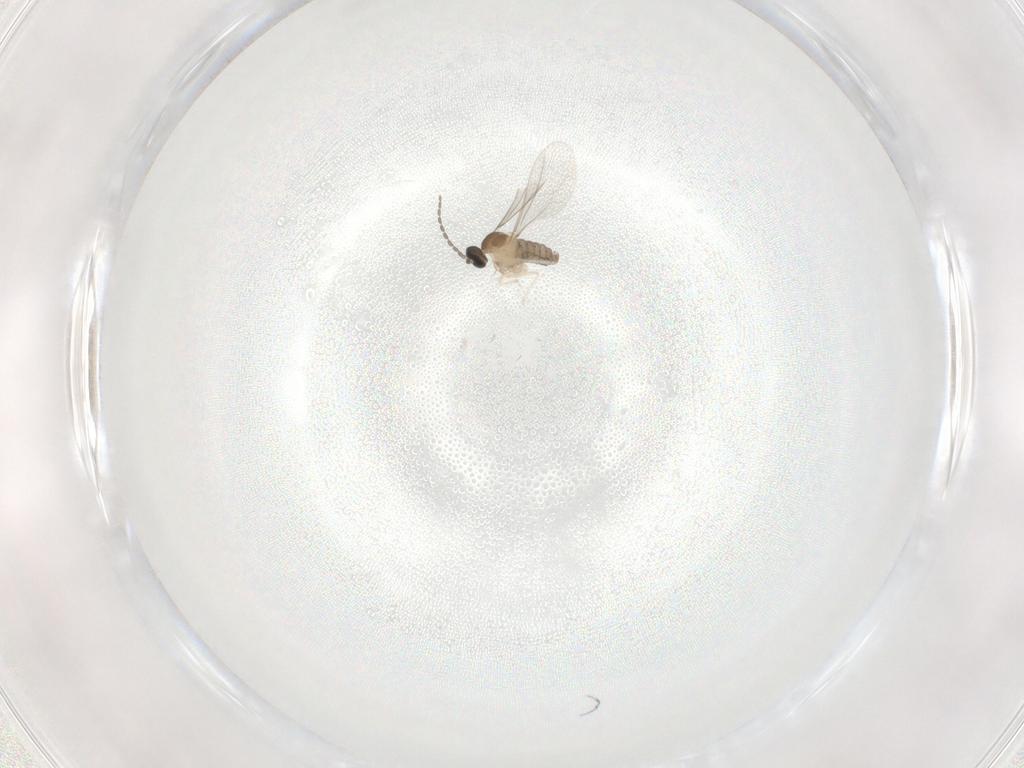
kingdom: Animalia
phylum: Arthropoda
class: Insecta
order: Diptera
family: Cecidomyiidae
